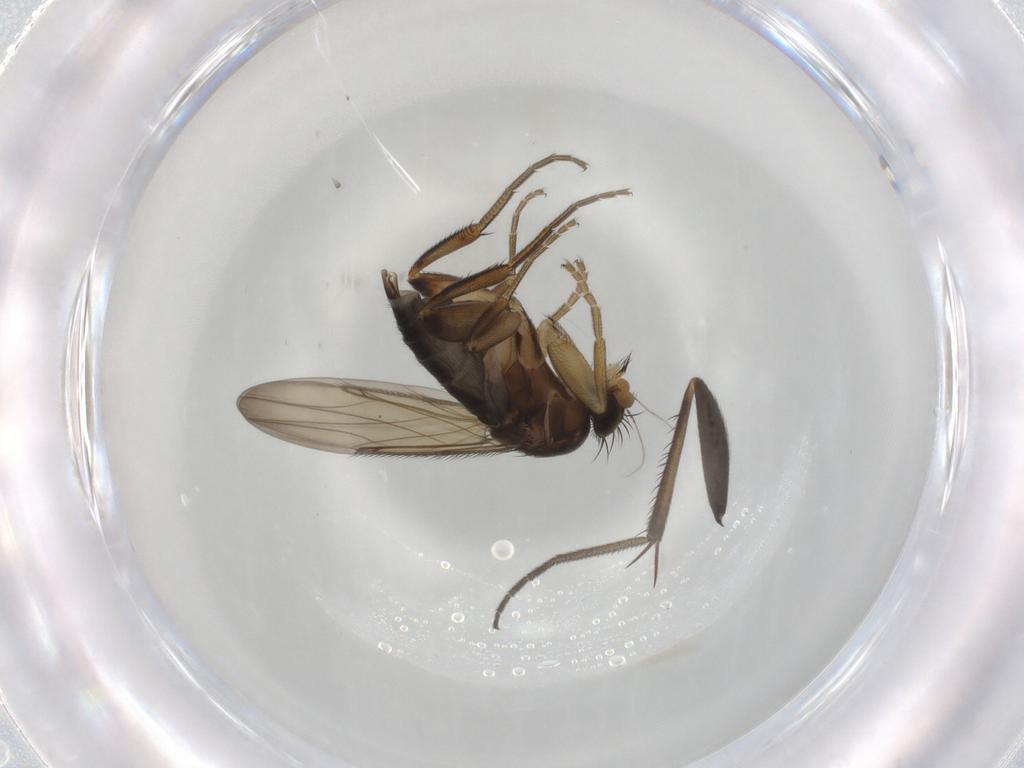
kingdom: Animalia
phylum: Arthropoda
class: Insecta
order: Diptera
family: Phoridae
